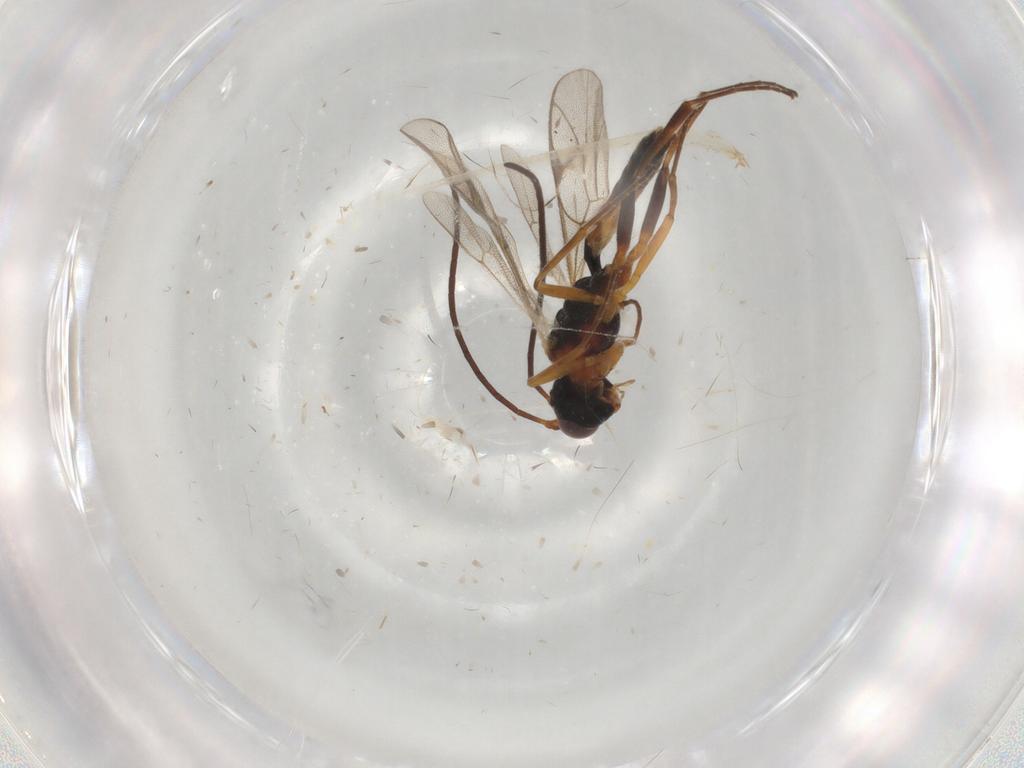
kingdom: Animalia
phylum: Arthropoda
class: Insecta
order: Hymenoptera
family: Ichneumonidae
